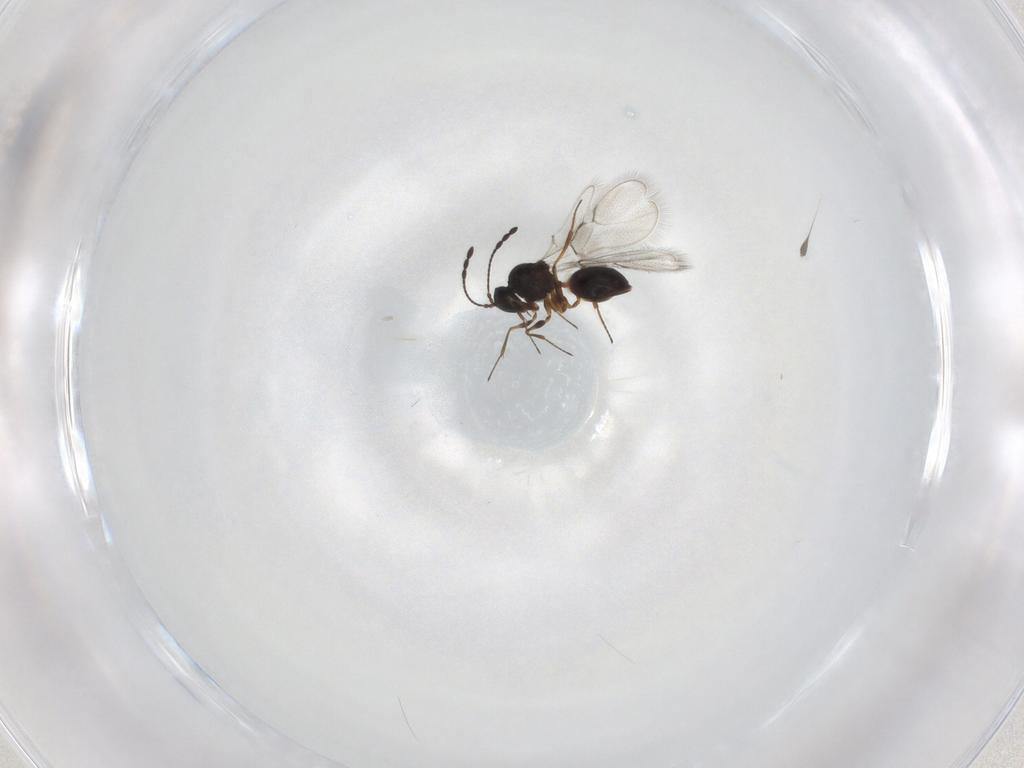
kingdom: Animalia
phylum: Arthropoda
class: Insecta
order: Hymenoptera
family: Figitidae
